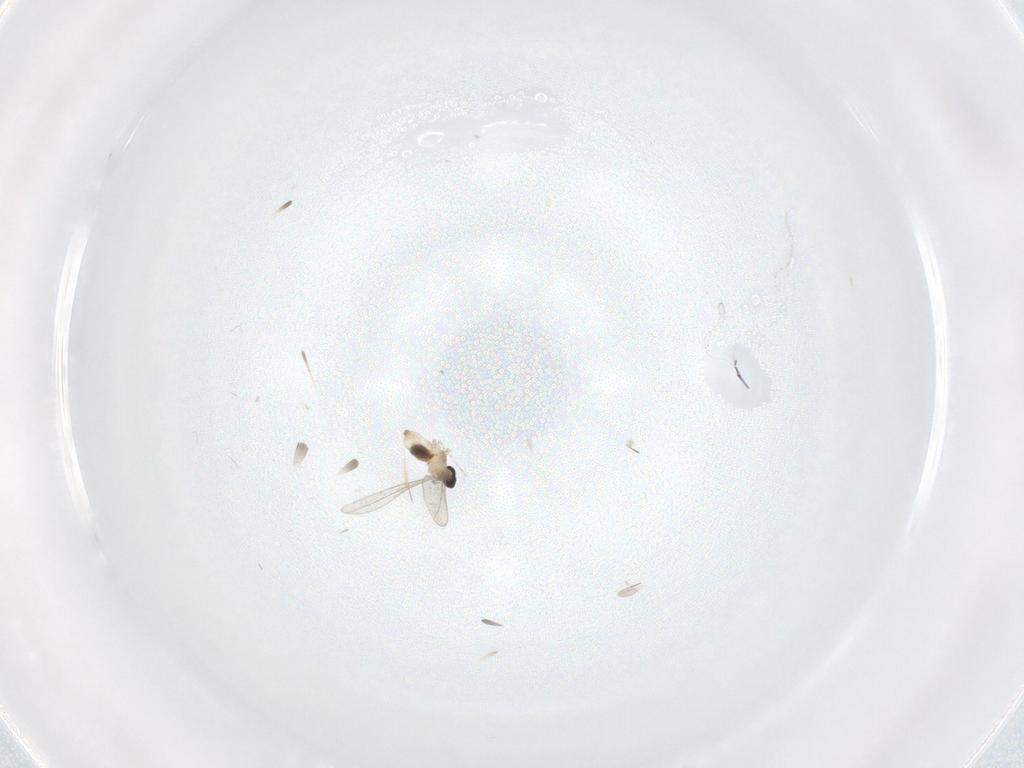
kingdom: Animalia
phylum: Arthropoda
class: Insecta
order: Diptera
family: Cecidomyiidae
